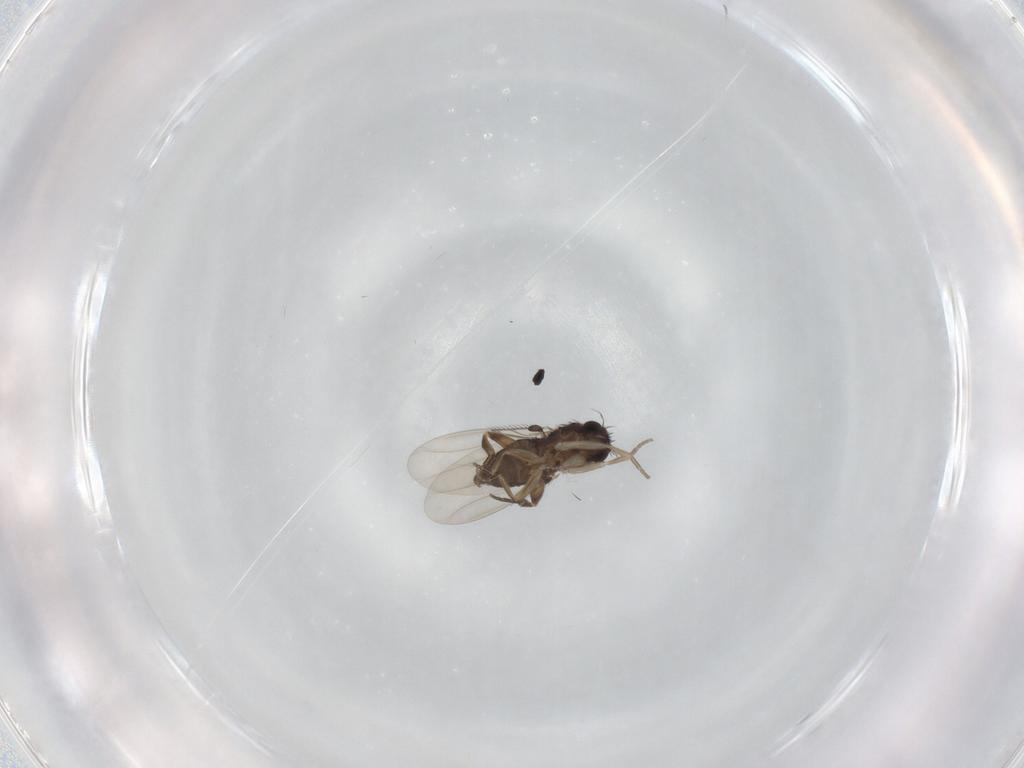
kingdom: Animalia
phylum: Arthropoda
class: Insecta
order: Diptera
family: Phoridae
